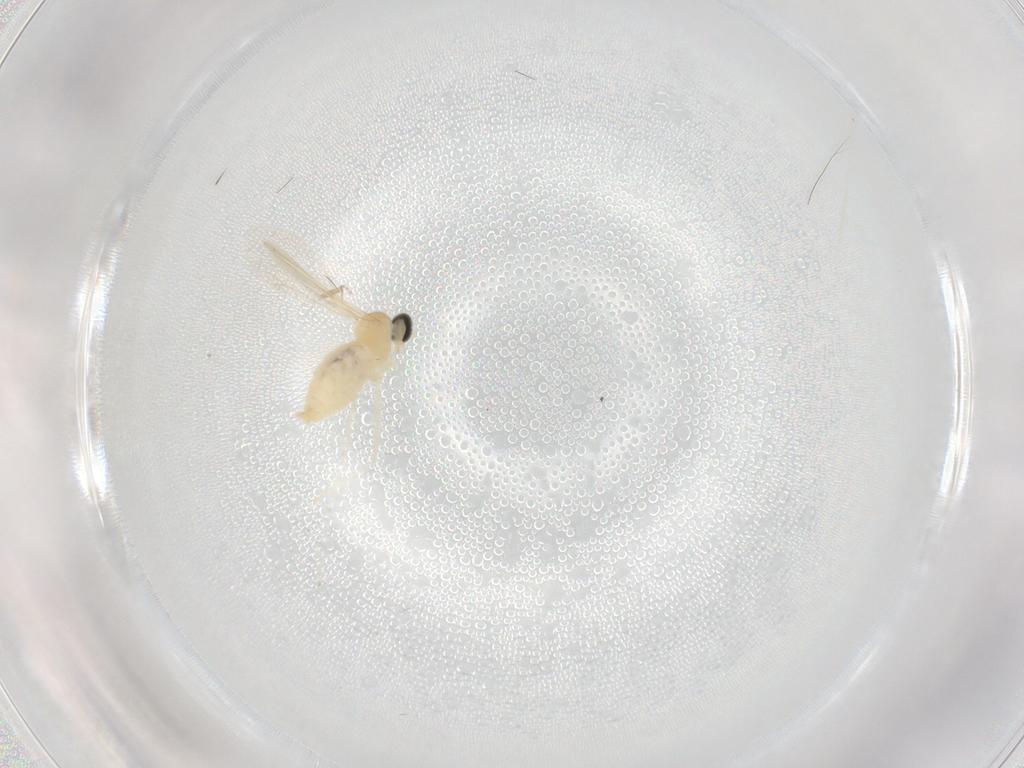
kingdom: Animalia
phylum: Arthropoda
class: Insecta
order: Diptera
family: Cecidomyiidae
